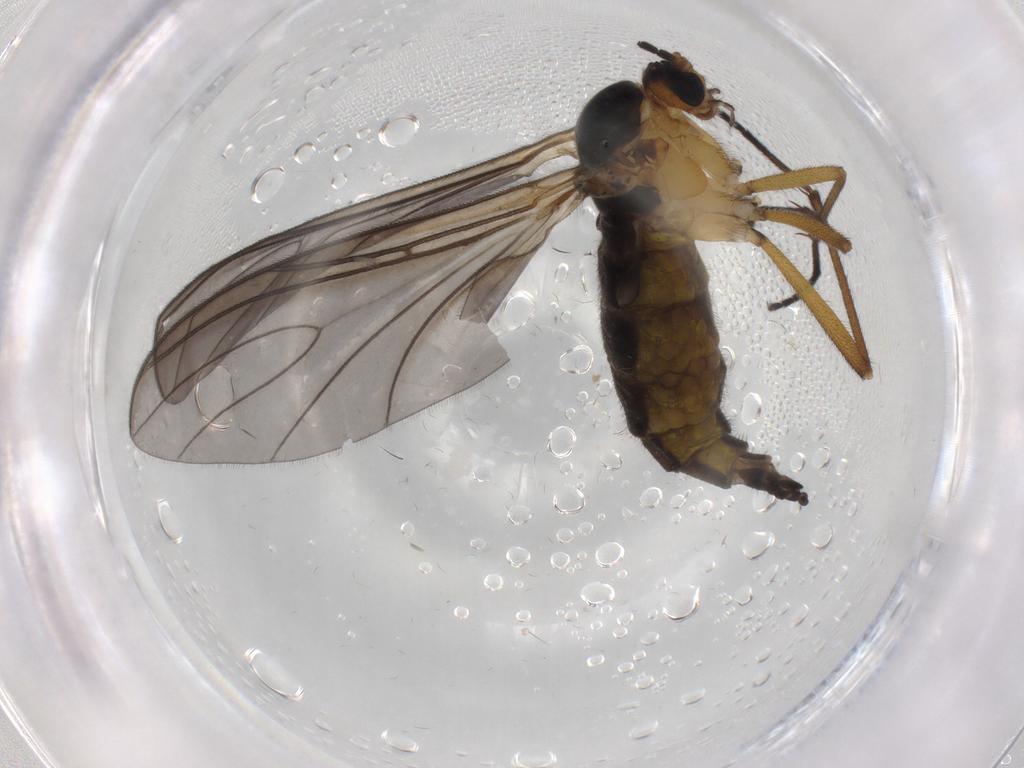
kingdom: Animalia
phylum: Arthropoda
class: Insecta
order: Diptera
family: Sciaridae
